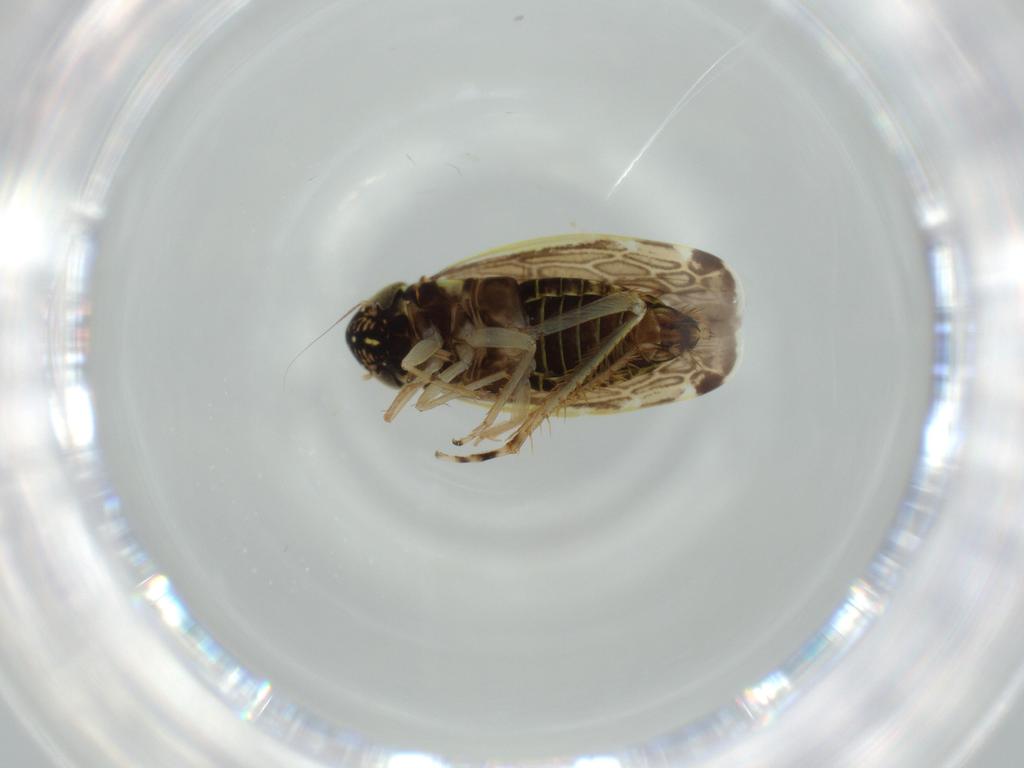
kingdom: Animalia
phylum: Arthropoda
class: Insecta
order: Hemiptera
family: Cicadellidae
